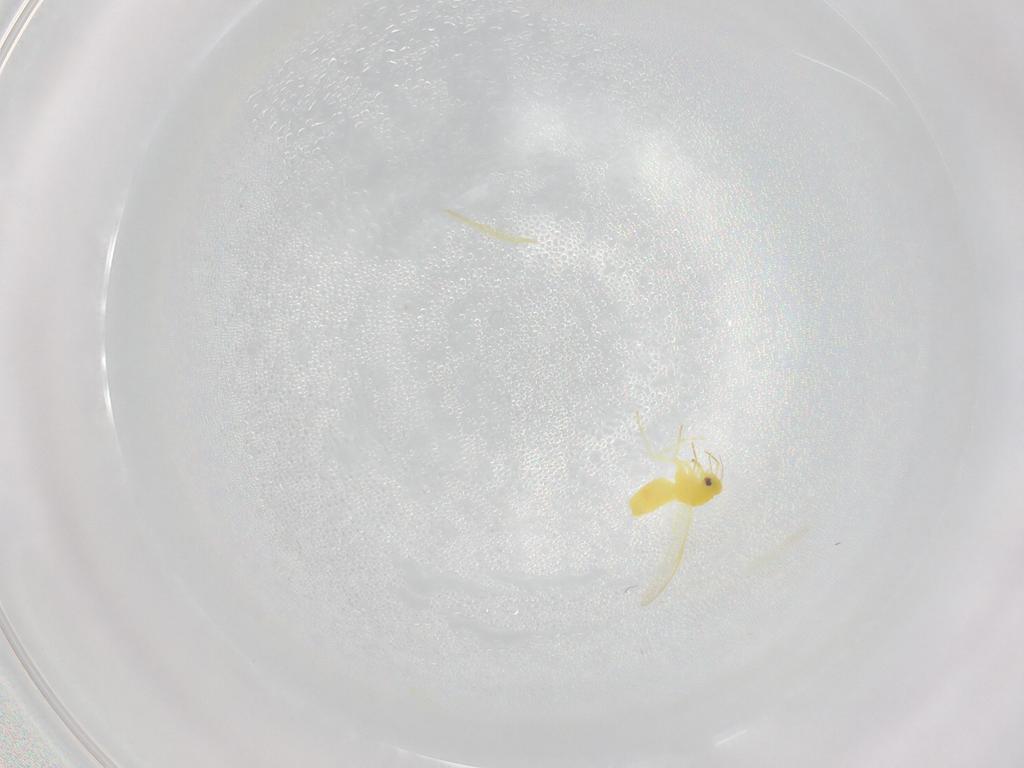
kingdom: Animalia
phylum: Arthropoda
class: Insecta
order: Hemiptera
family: Aleyrodidae
